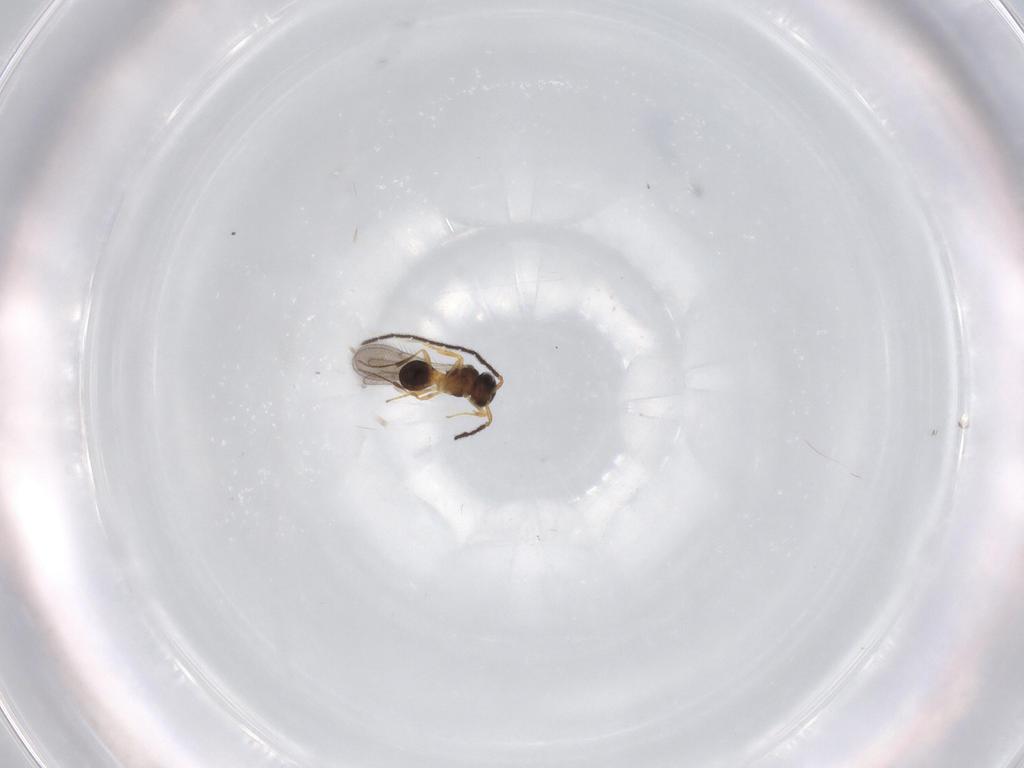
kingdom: Animalia
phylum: Arthropoda
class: Insecta
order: Hymenoptera
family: Scelionidae
